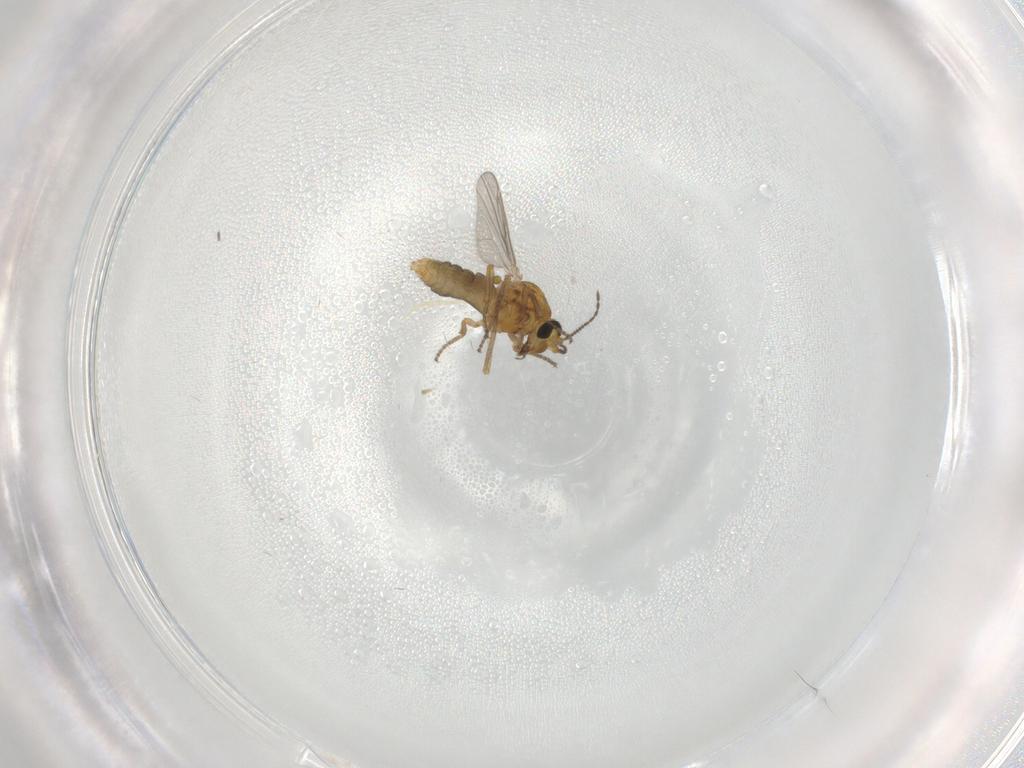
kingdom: Animalia
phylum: Arthropoda
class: Insecta
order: Diptera
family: Ceratopogonidae
